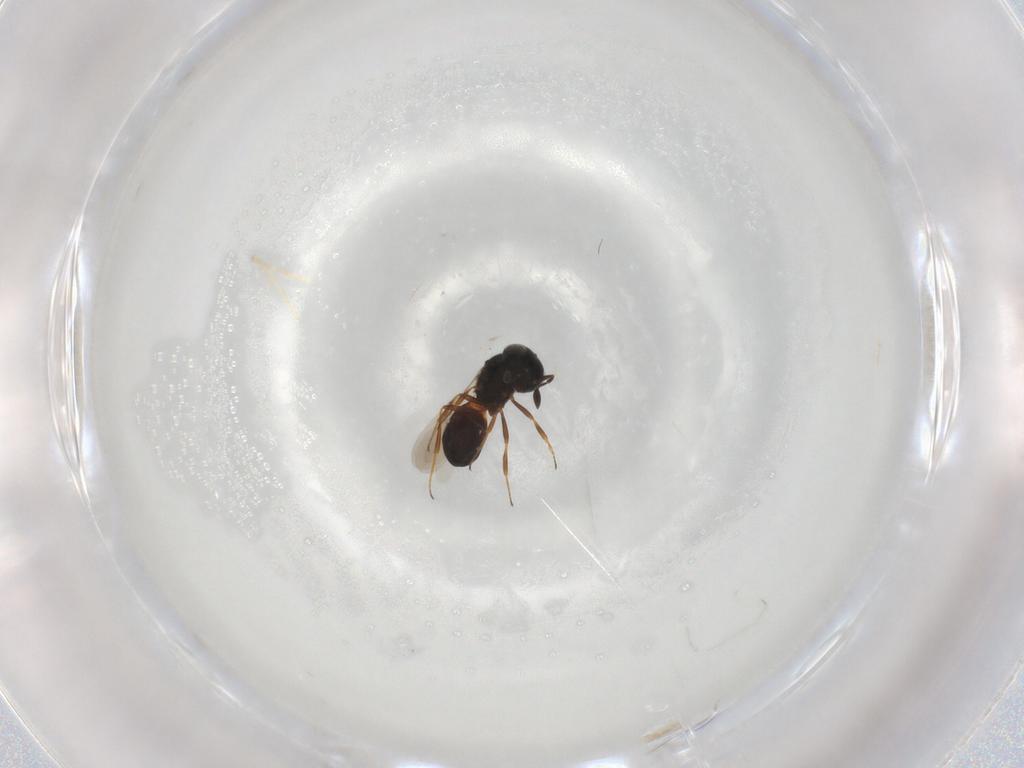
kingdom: Animalia
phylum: Arthropoda
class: Insecta
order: Hymenoptera
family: Scelionidae
